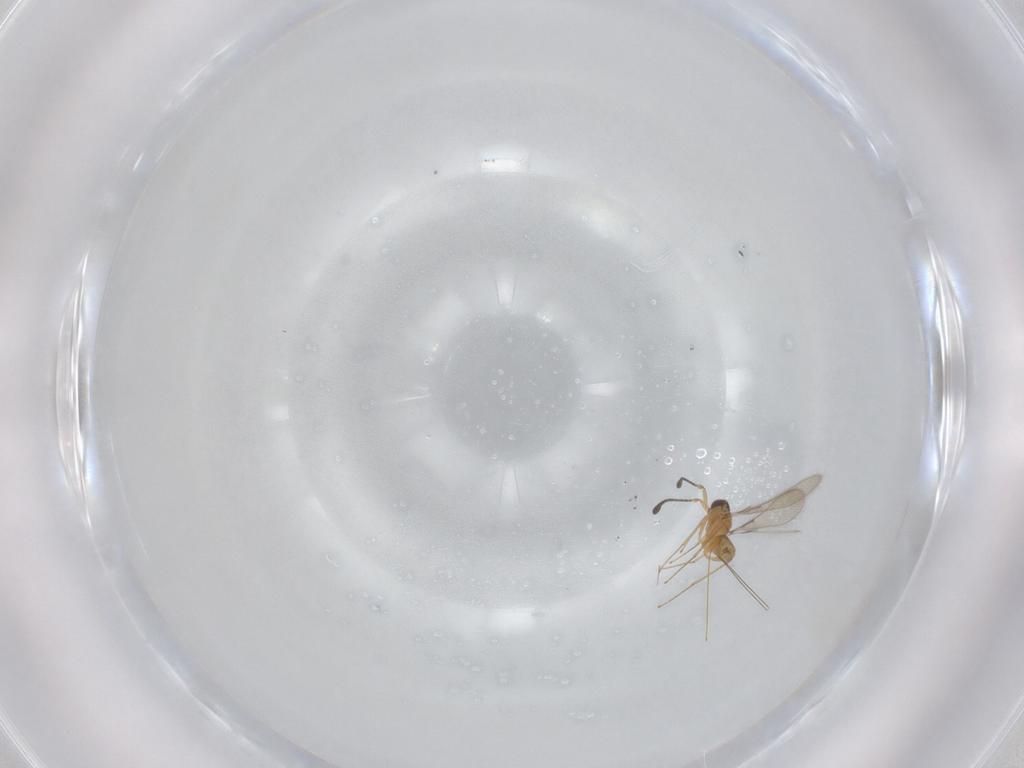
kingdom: Animalia
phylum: Arthropoda
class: Insecta
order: Hymenoptera
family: Mymaridae
